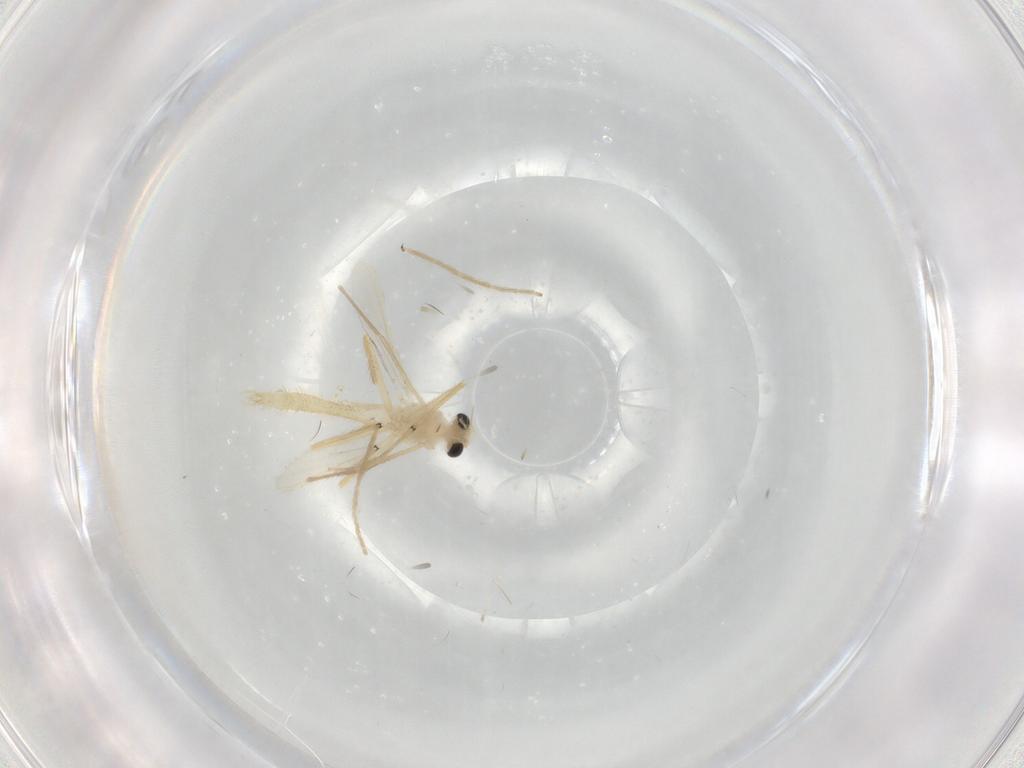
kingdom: Animalia
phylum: Arthropoda
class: Insecta
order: Diptera
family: Chironomidae
